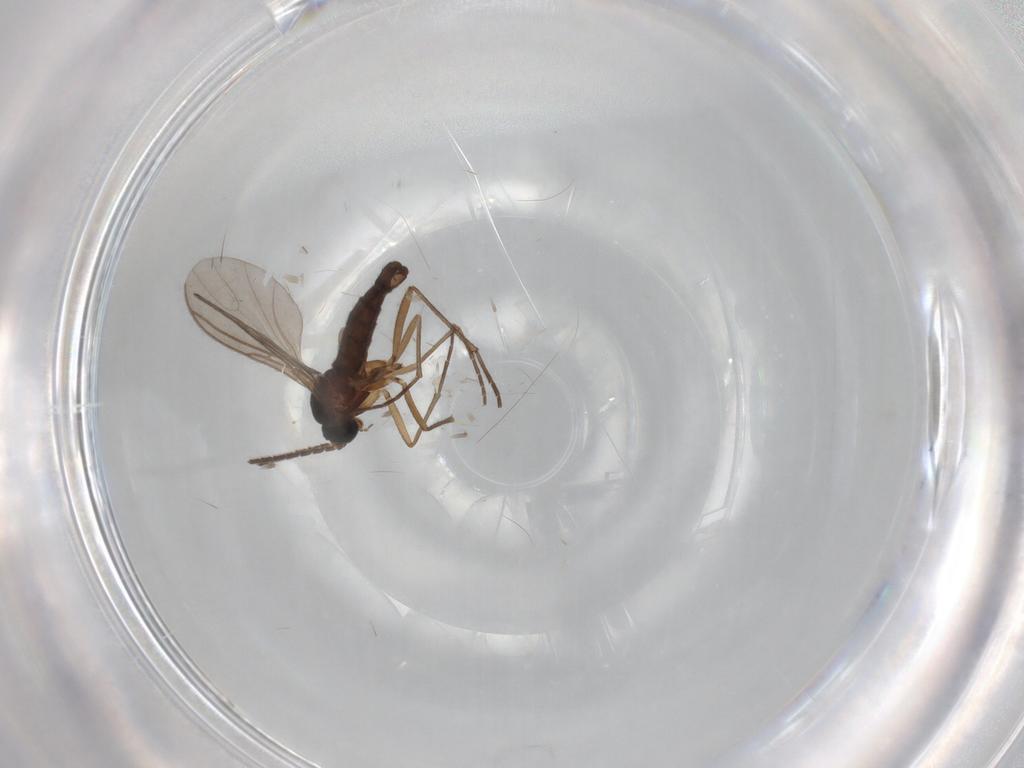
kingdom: Animalia
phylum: Arthropoda
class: Insecta
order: Diptera
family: Sciaridae
